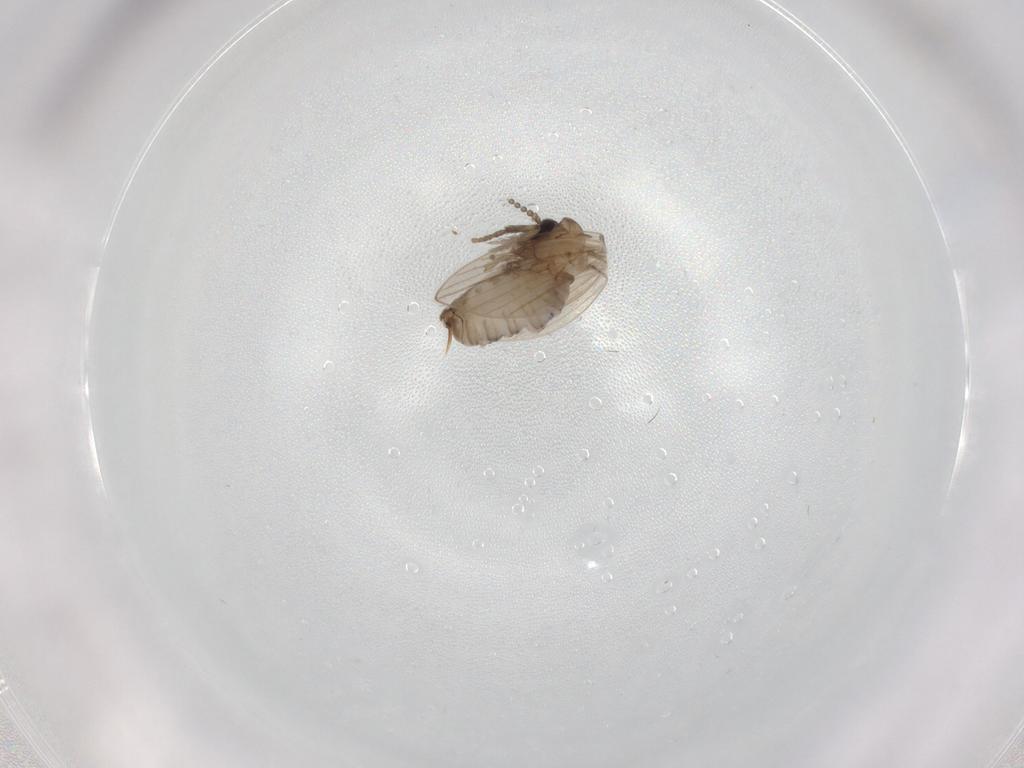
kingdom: Animalia
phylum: Arthropoda
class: Insecta
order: Diptera
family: Psychodidae
